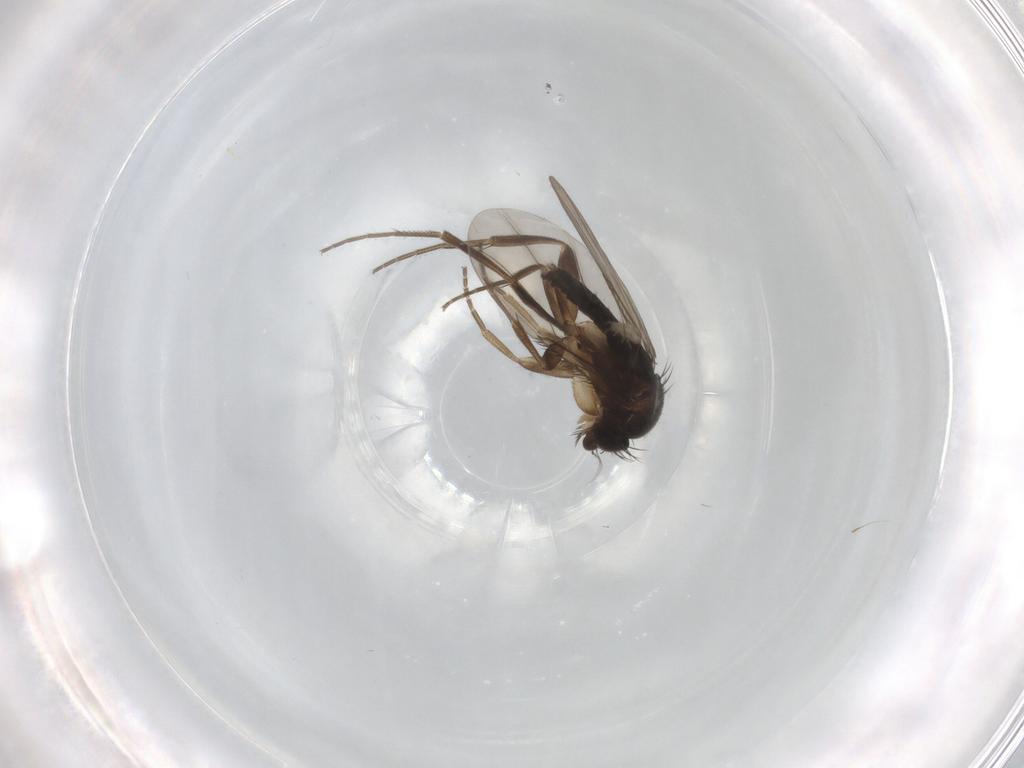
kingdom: Animalia
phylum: Arthropoda
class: Insecta
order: Diptera
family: Phoridae
